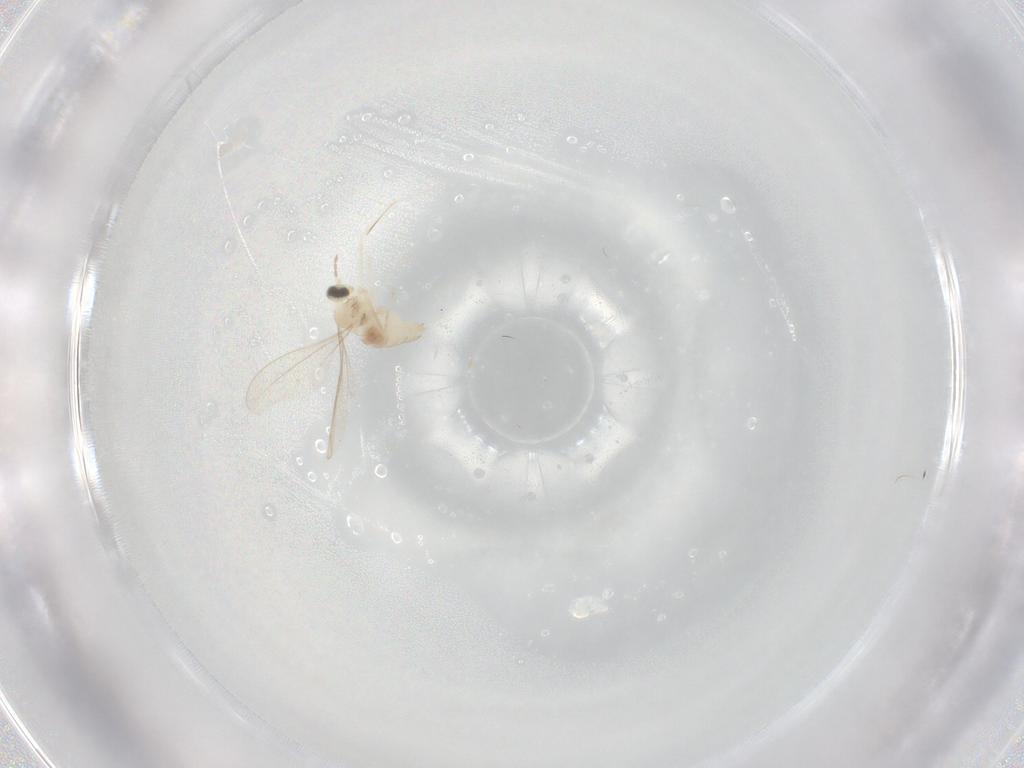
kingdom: Animalia
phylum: Arthropoda
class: Insecta
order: Diptera
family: Cecidomyiidae
